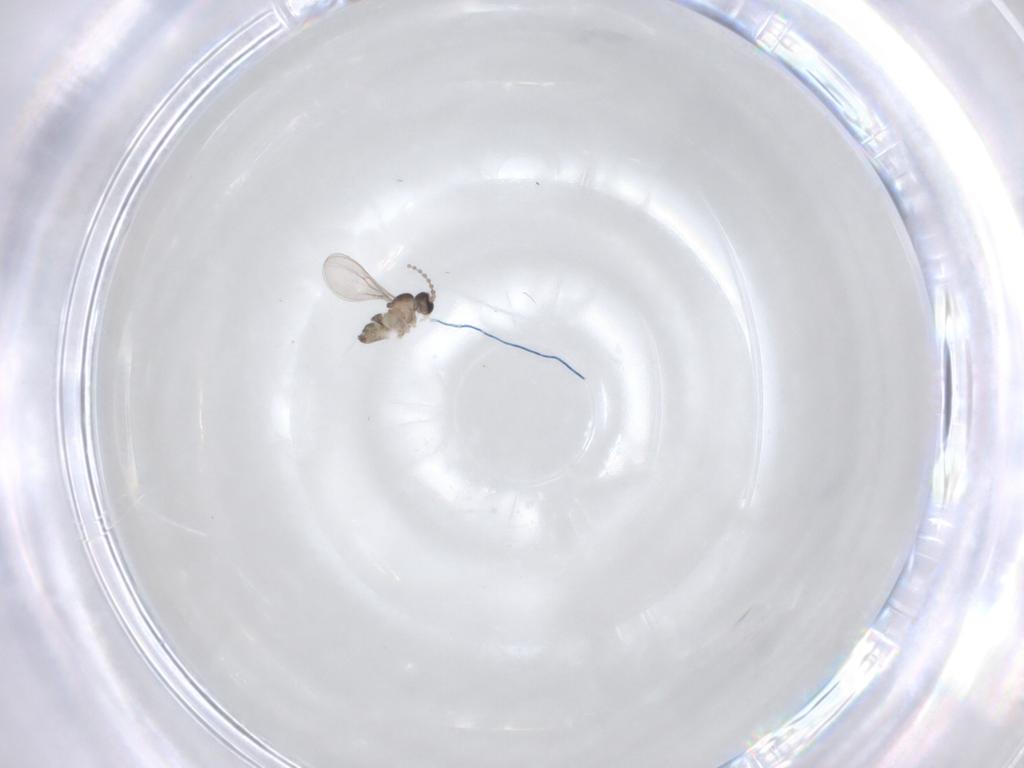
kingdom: Animalia
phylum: Arthropoda
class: Insecta
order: Diptera
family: Cecidomyiidae
